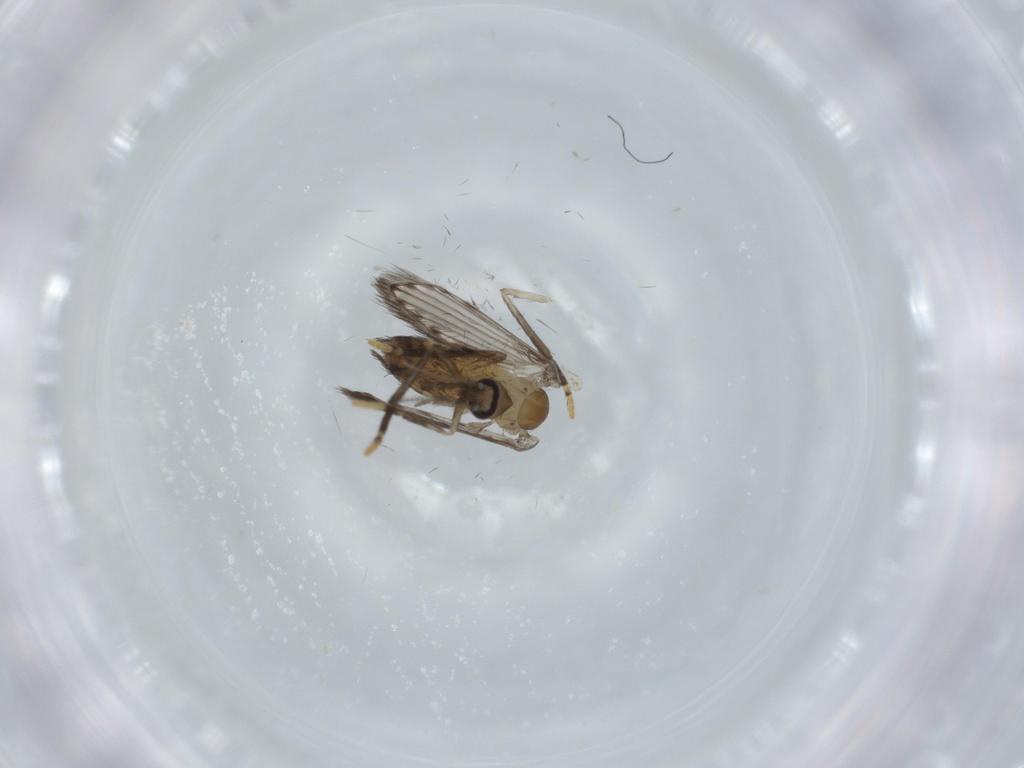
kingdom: Animalia
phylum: Arthropoda
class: Insecta
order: Diptera
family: Psychodidae
